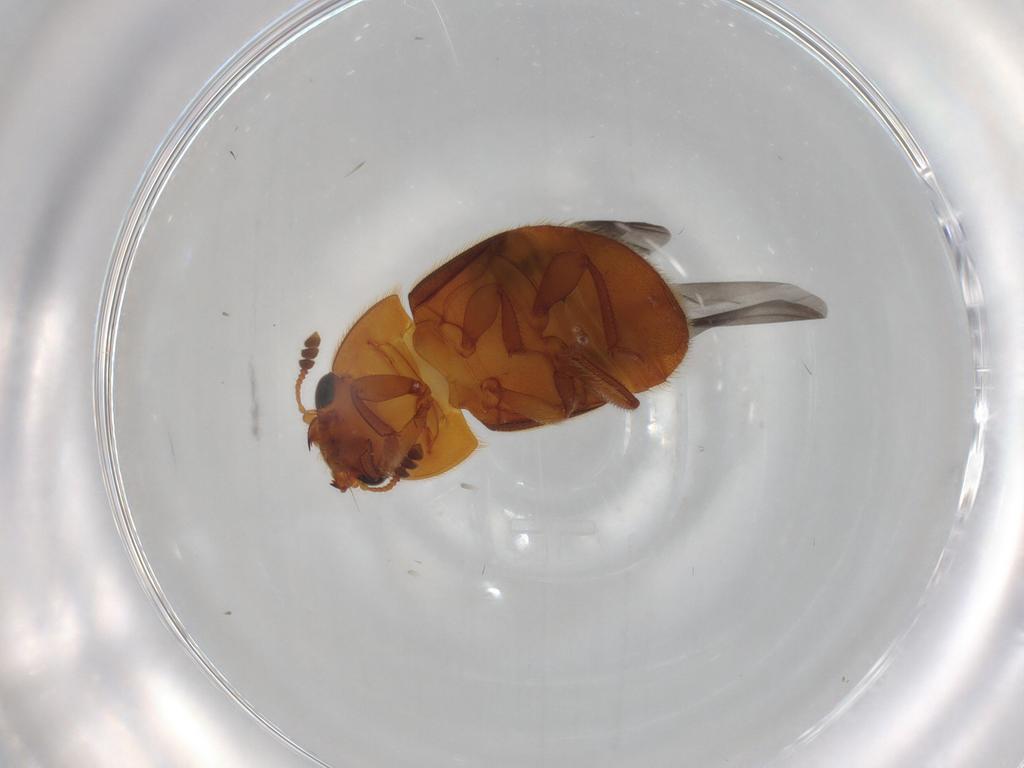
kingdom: Animalia
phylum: Arthropoda
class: Insecta
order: Coleoptera
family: Nitidulidae
